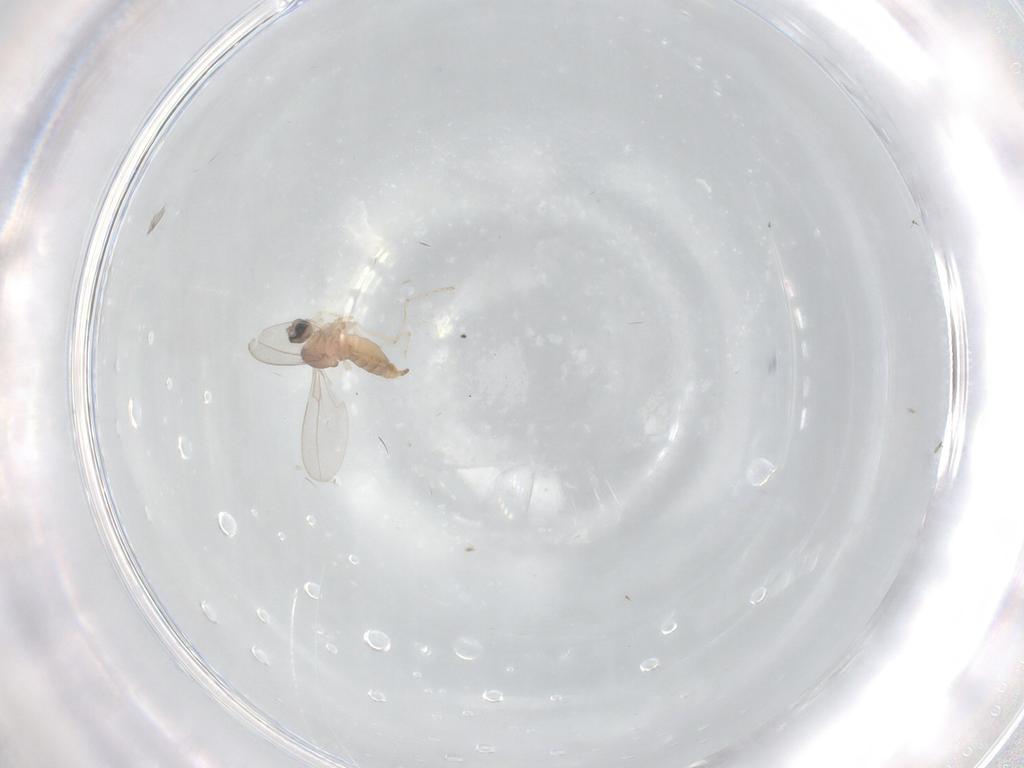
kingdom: Animalia
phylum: Arthropoda
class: Insecta
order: Diptera
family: Cecidomyiidae
